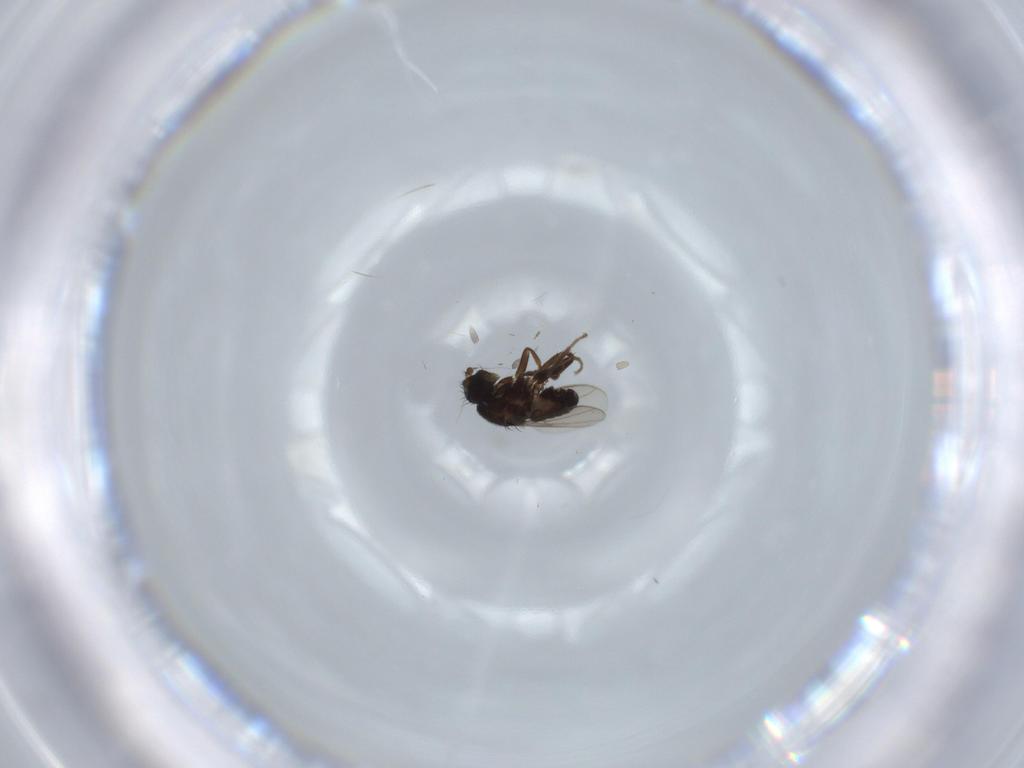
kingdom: Animalia
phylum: Arthropoda
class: Insecta
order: Diptera
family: Sphaeroceridae
